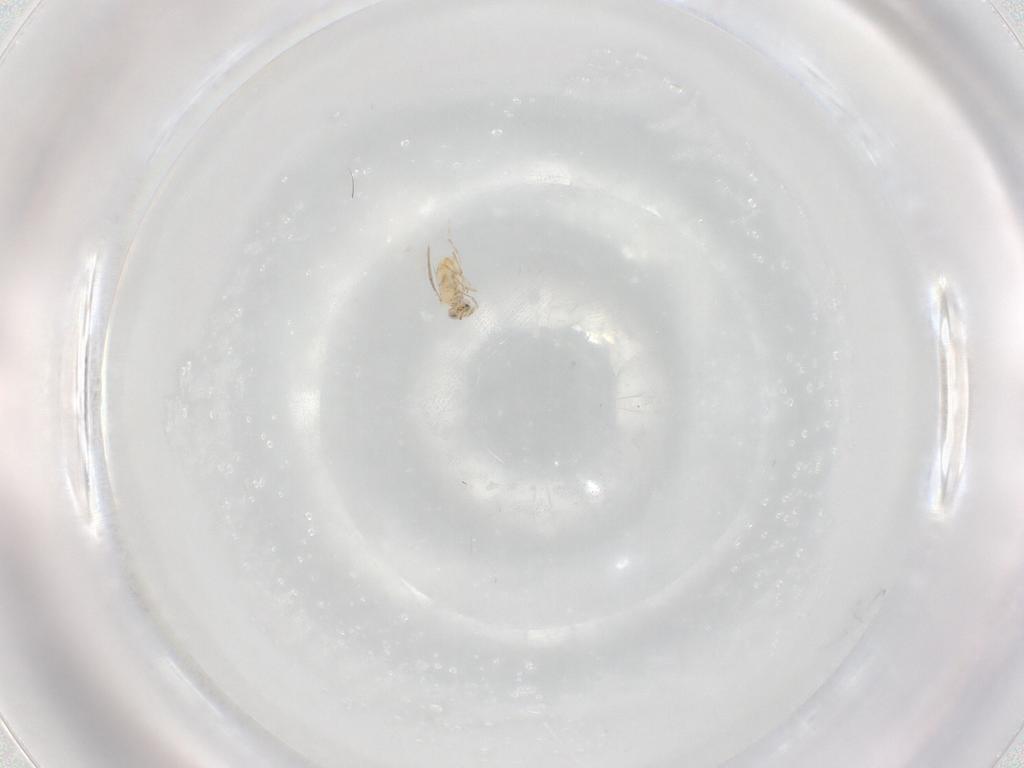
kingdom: Animalia
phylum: Arthropoda
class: Insecta
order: Hymenoptera
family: Aphelinidae
